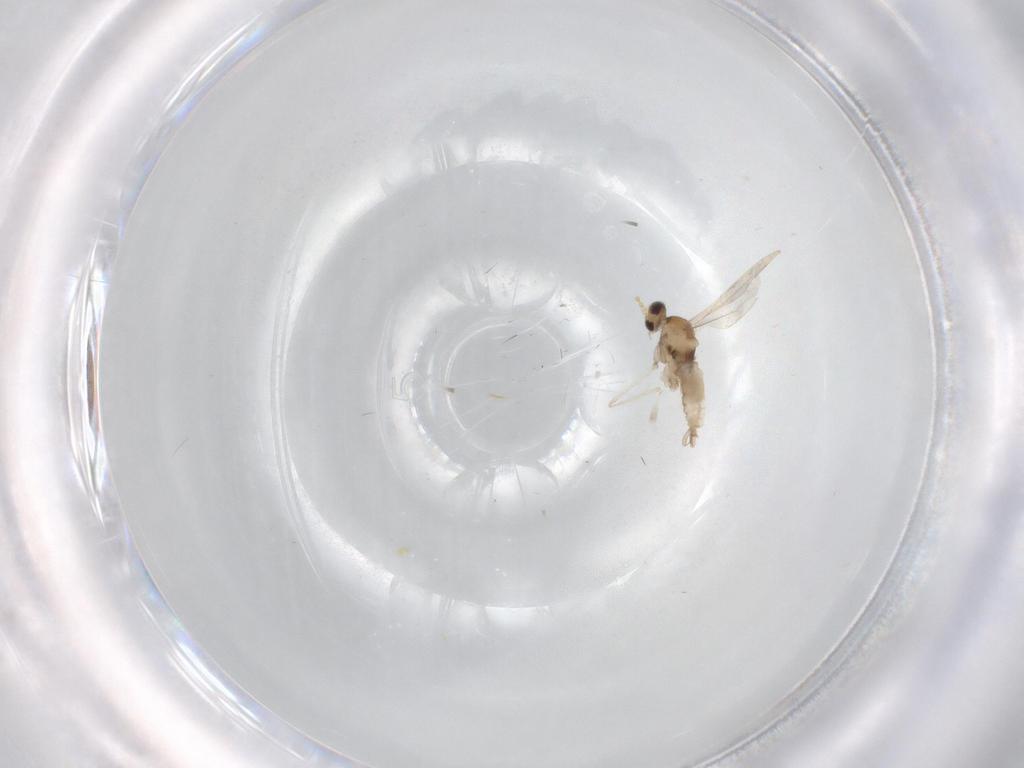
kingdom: Animalia
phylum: Arthropoda
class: Insecta
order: Diptera
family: Cecidomyiidae
